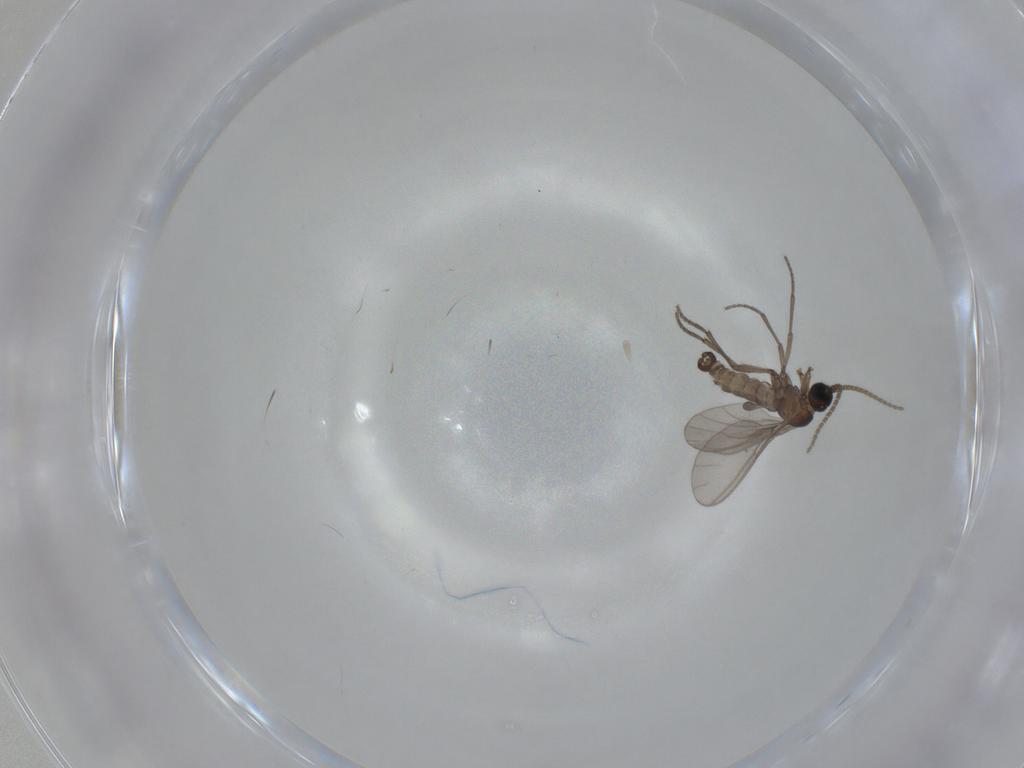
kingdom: Animalia
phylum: Arthropoda
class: Insecta
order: Diptera
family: Sciaridae
